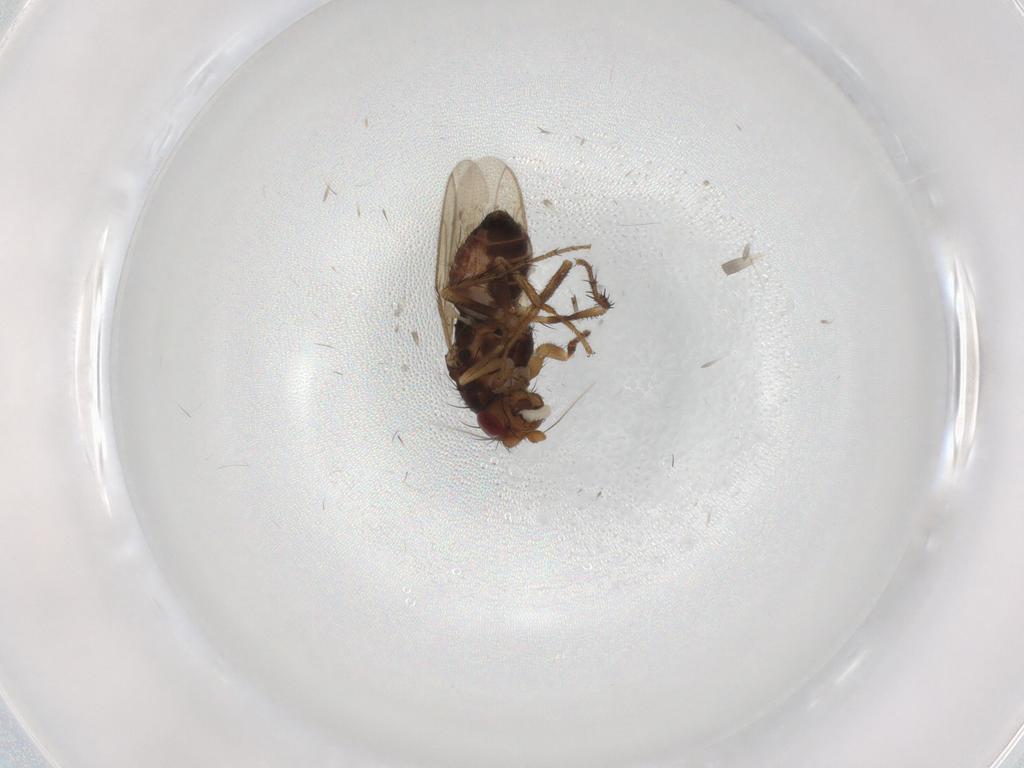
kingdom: Animalia
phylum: Arthropoda
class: Insecta
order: Diptera
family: Sphaeroceridae
